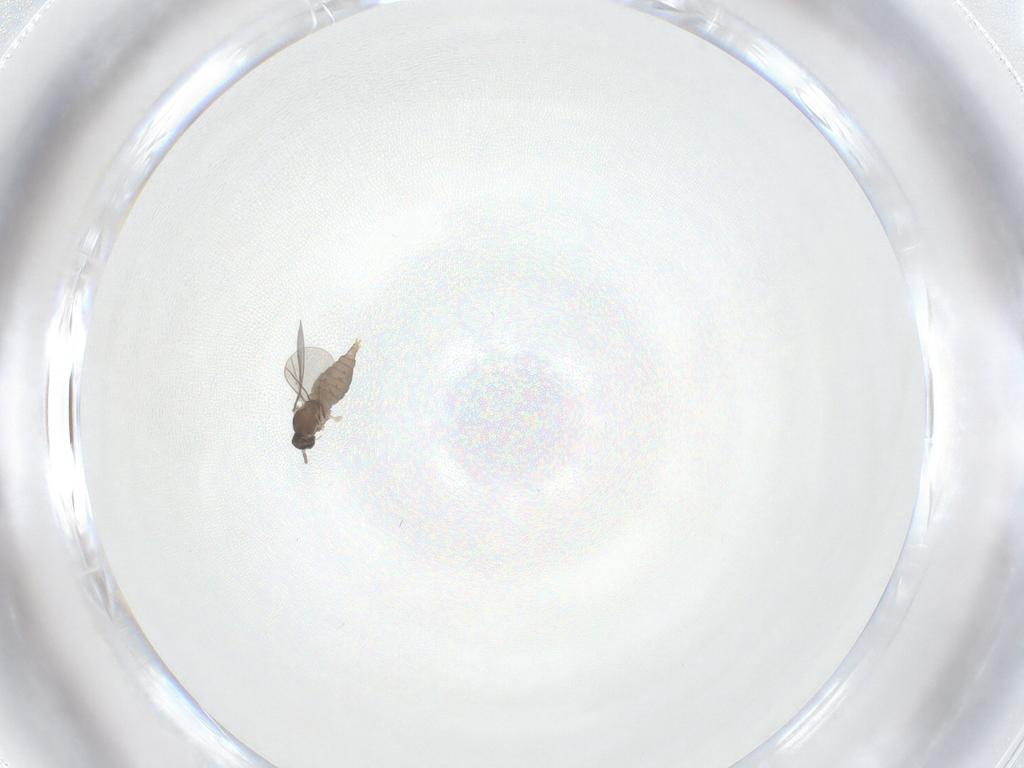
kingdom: Animalia
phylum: Arthropoda
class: Insecta
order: Diptera
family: Cecidomyiidae
